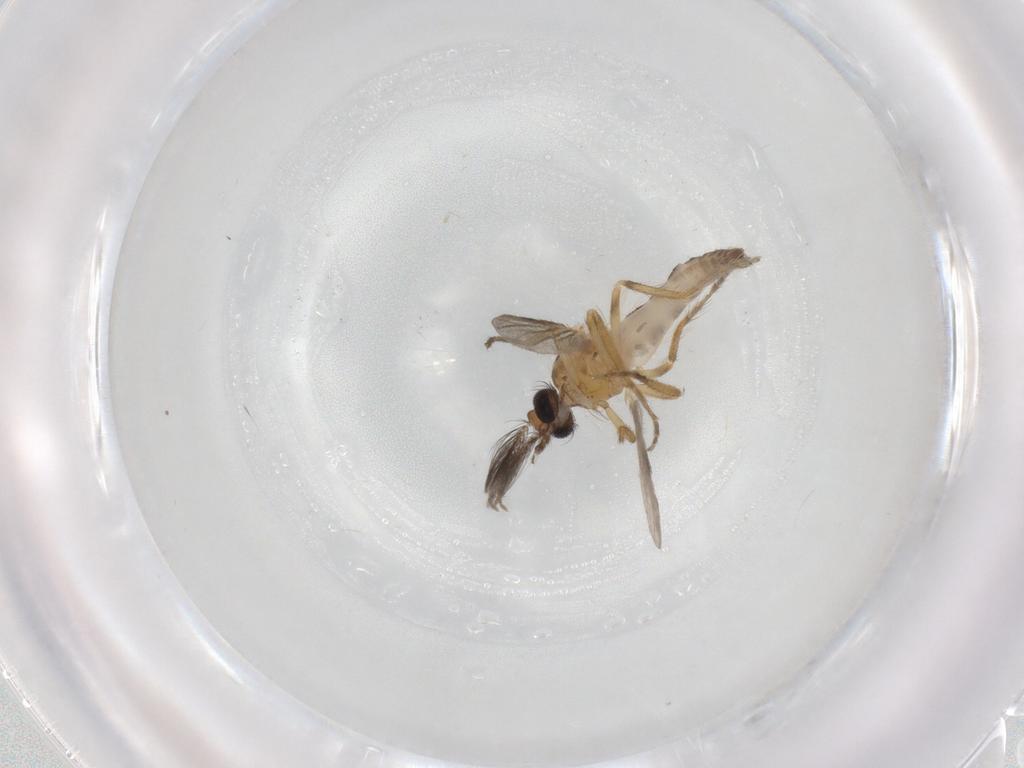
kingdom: Animalia
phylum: Arthropoda
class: Insecta
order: Diptera
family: Ceratopogonidae
